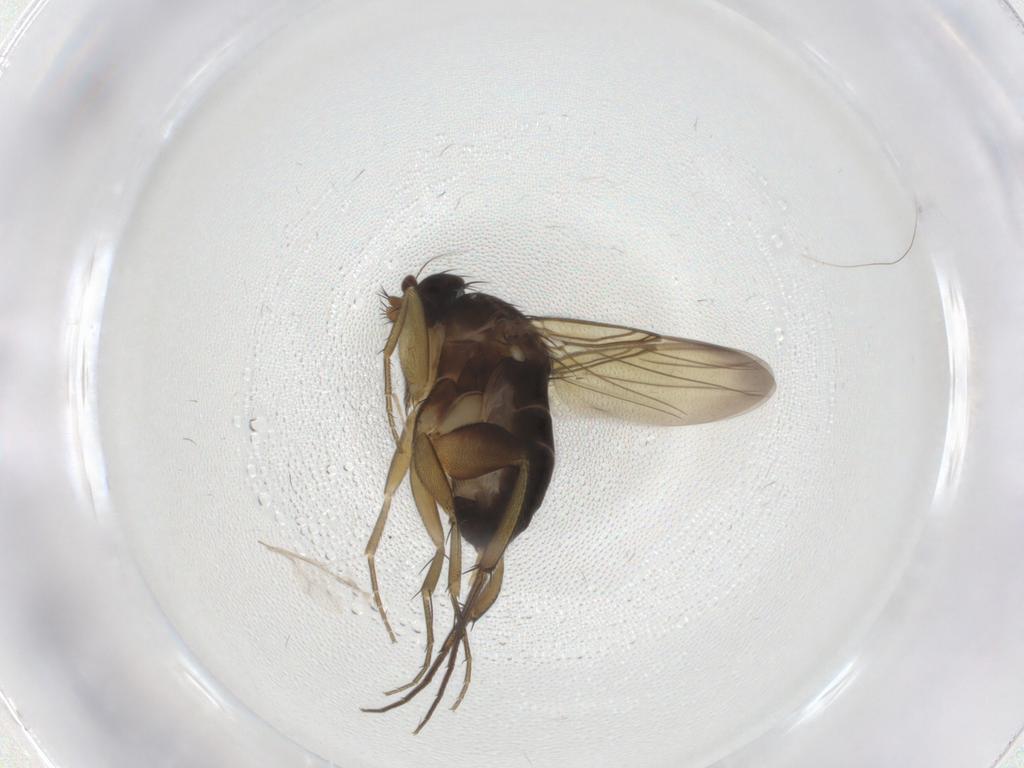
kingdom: Animalia
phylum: Arthropoda
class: Insecta
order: Diptera
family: Phoridae
